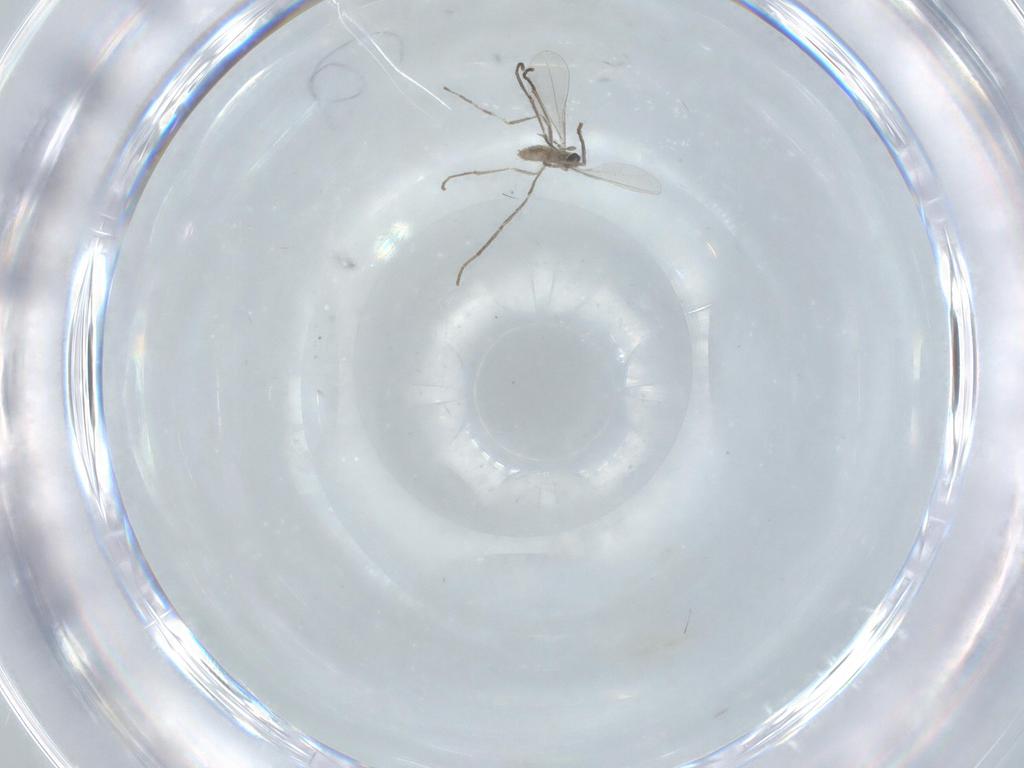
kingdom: Animalia
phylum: Arthropoda
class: Insecta
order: Diptera
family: Cecidomyiidae
